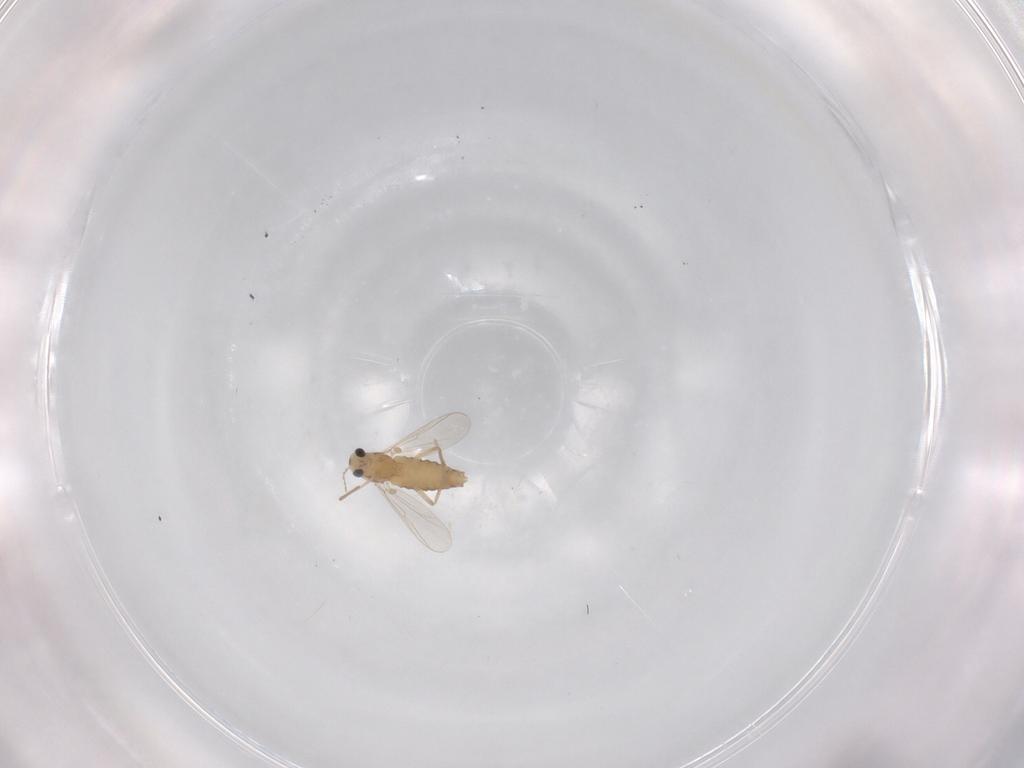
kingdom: Animalia
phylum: Arthropoda
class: Insecta
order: Diptera
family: Chironomidae
